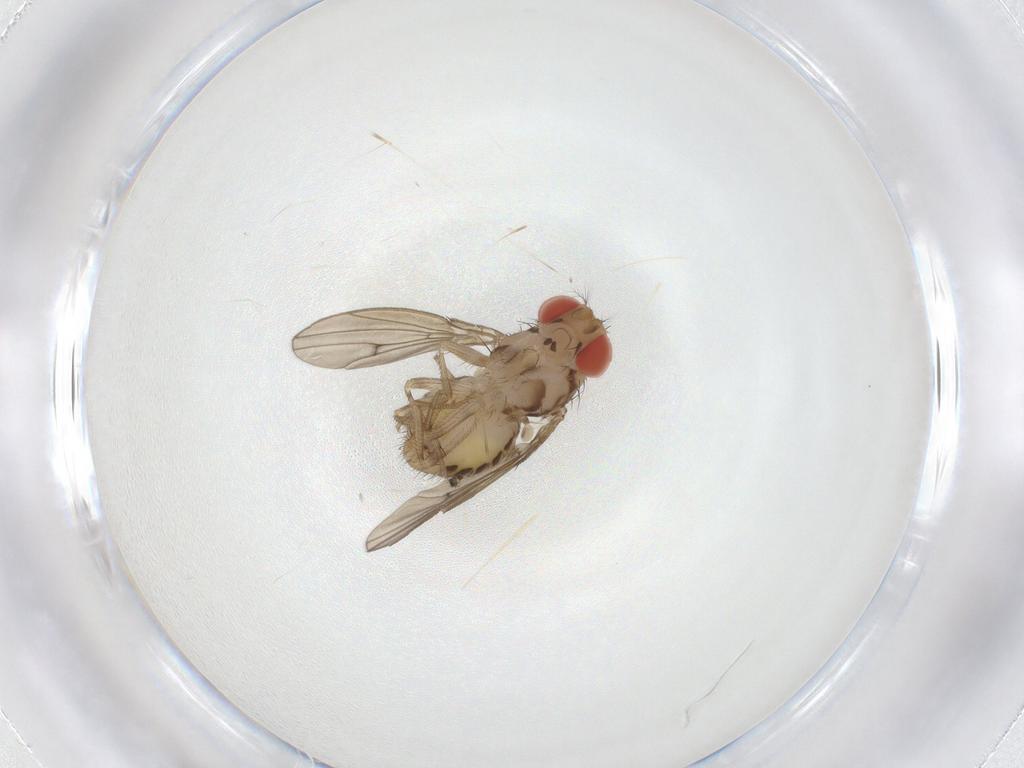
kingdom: Animalia
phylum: Arthropoda
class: Insecta
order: Diptera
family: Drosophilidae
